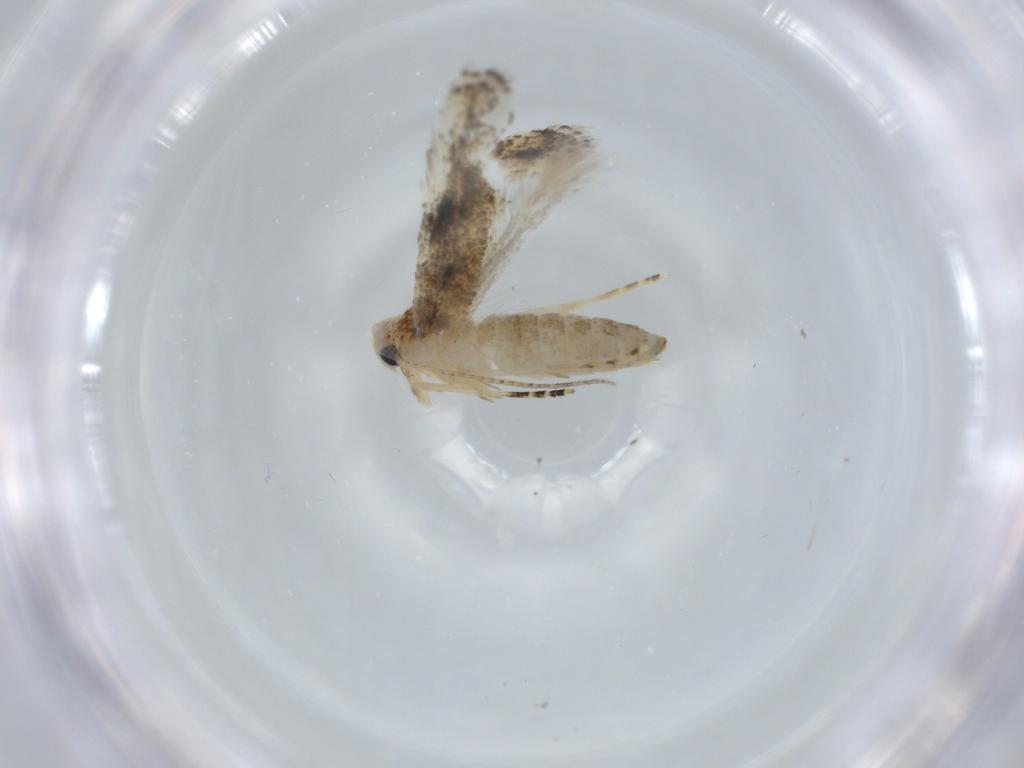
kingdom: Animalia
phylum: Arthropoda
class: Insecta
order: Lepidoptera
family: Bucculatricidae
